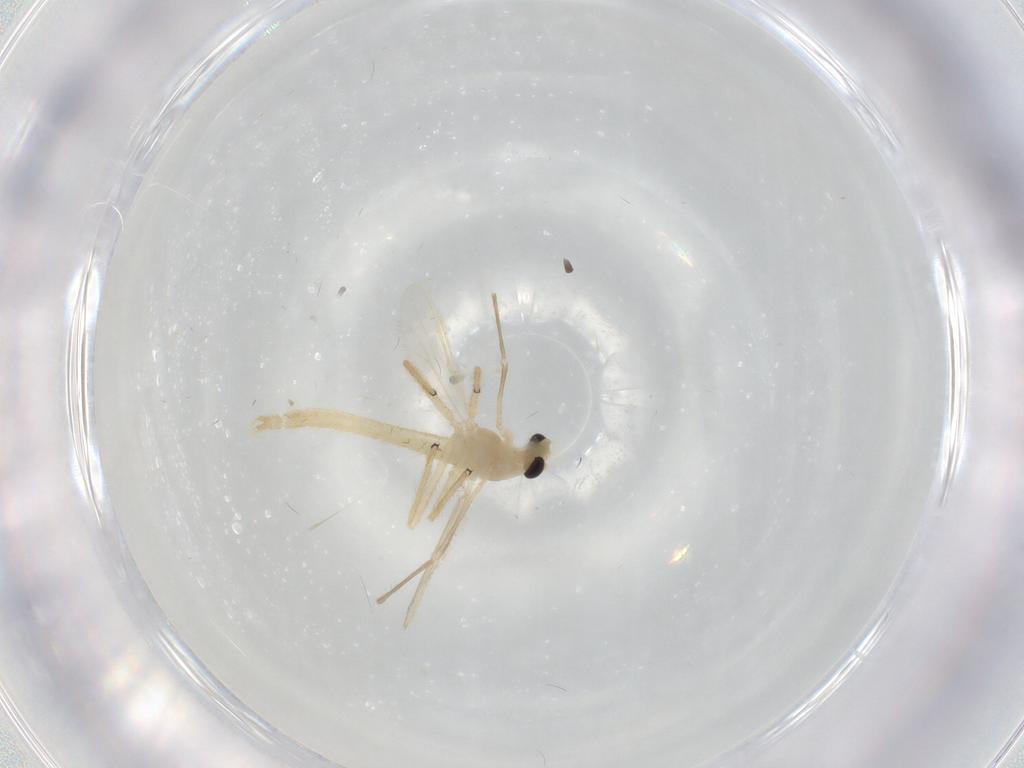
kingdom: Animalia
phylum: Arthropoda
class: Insecta
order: Diptera
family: Chironomidae
